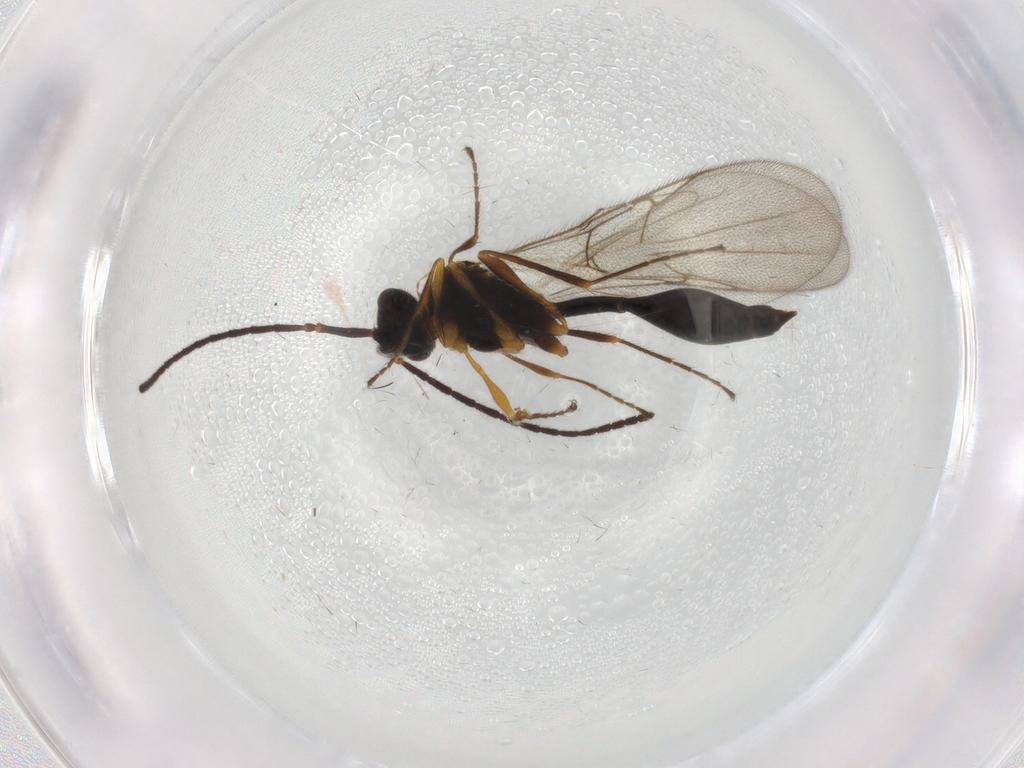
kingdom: Animalia
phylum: Arthropoda
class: Insecta
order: Hymenoptera
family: Diapriidae
